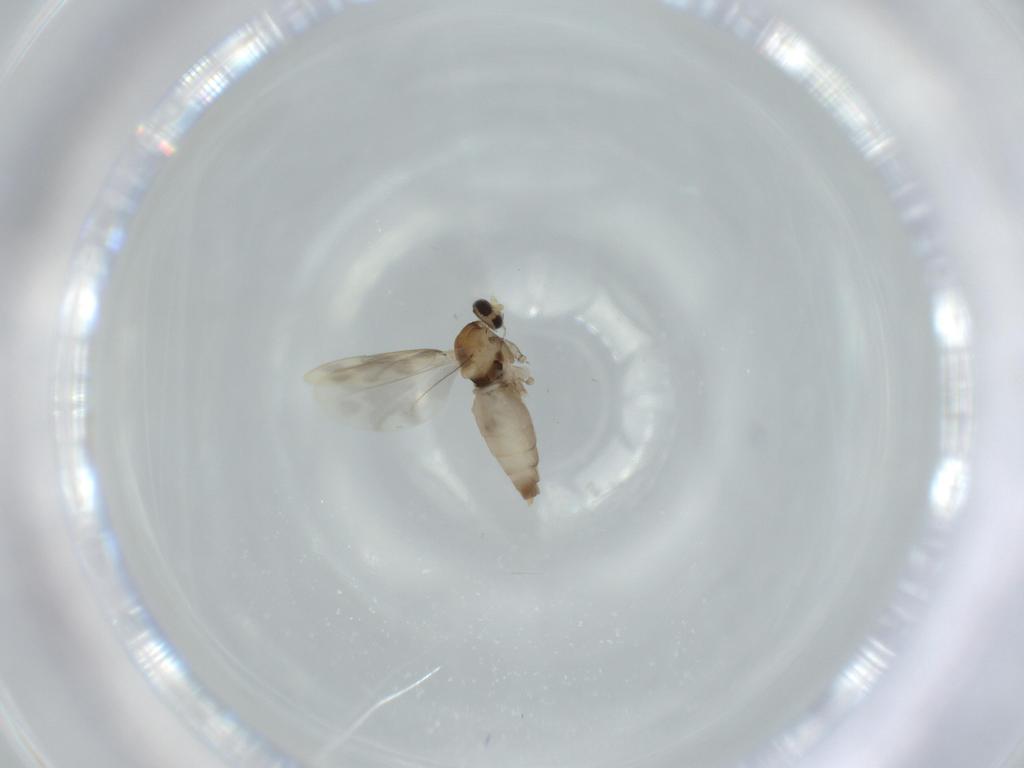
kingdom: Animalia
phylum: Arthropoda
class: Insecta
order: Diptera
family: Cecidomyiidae
